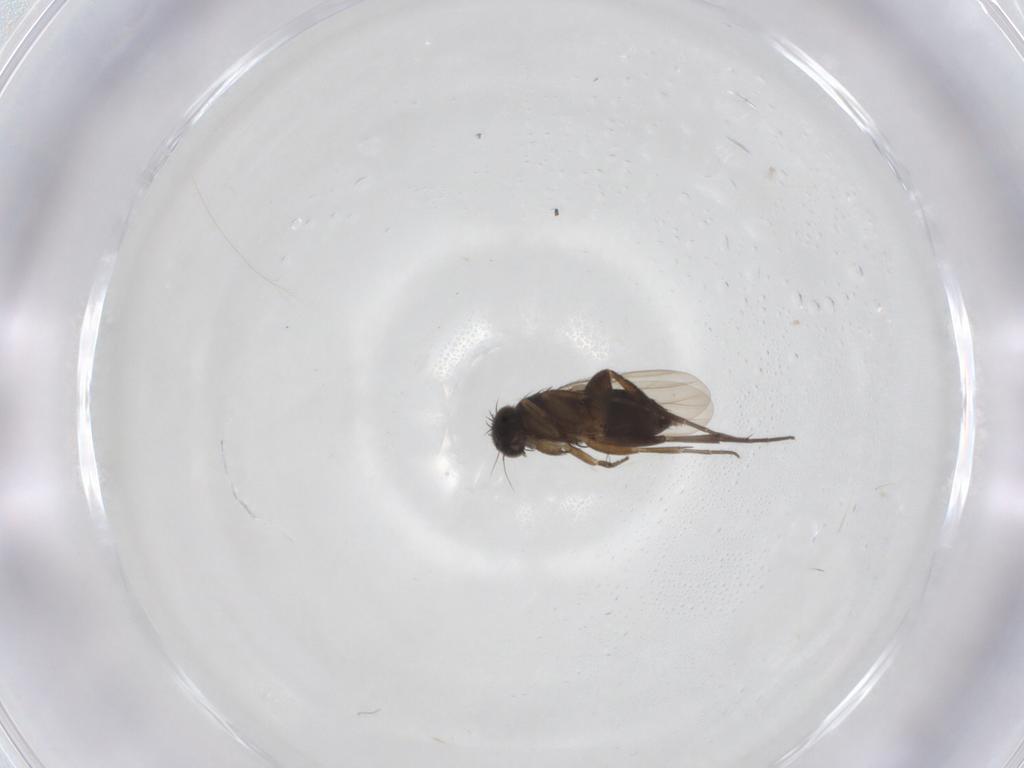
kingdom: Animalia
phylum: Arthropoda
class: Insecta
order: Diptera
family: Phoridae
